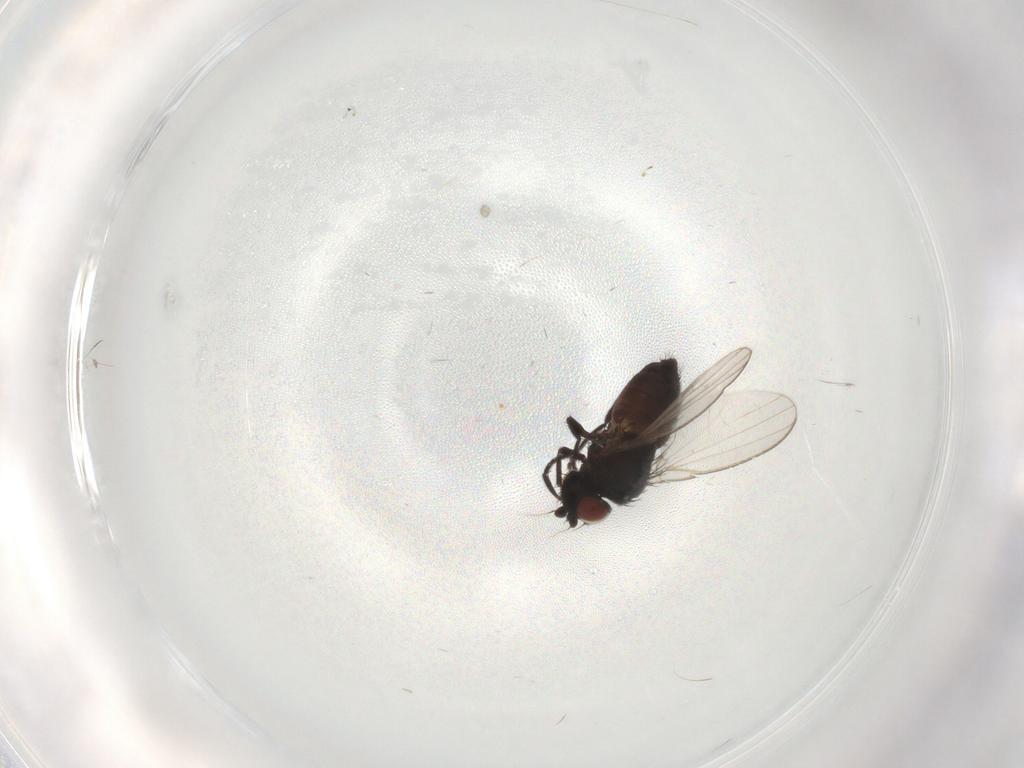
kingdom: Animalia
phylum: Arthropoda
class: Insecta
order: Diptera
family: Milichiidae
